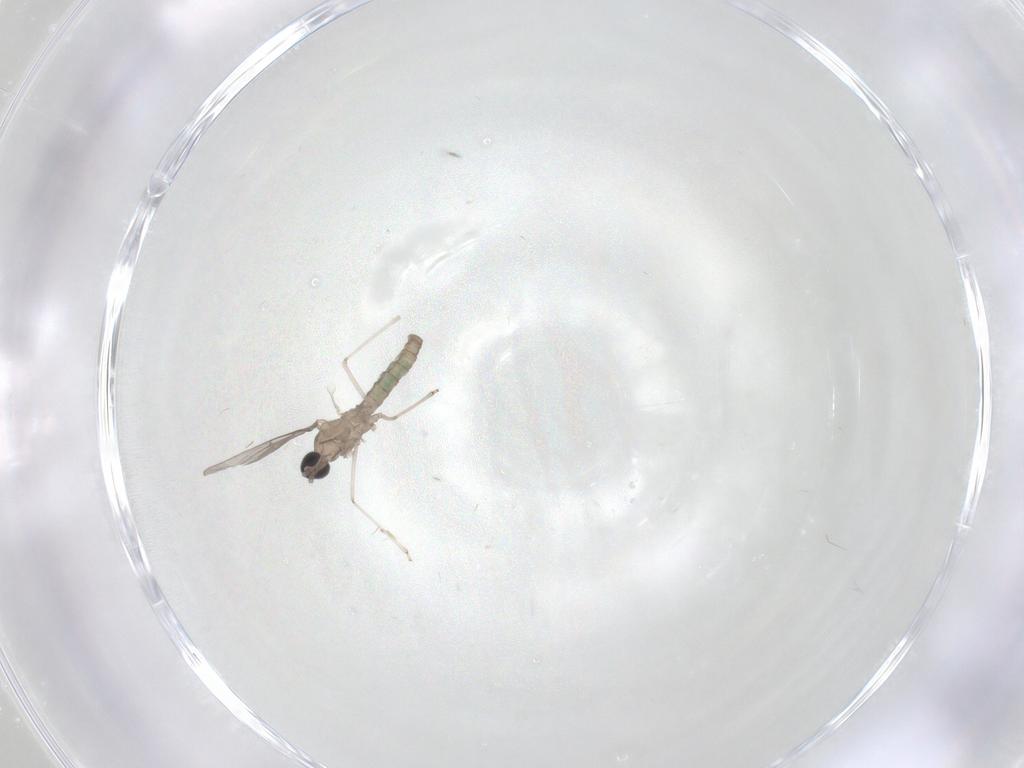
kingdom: Animalia
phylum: Arthropoda
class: Insecta
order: Diptera
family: Cecidomyiidae
